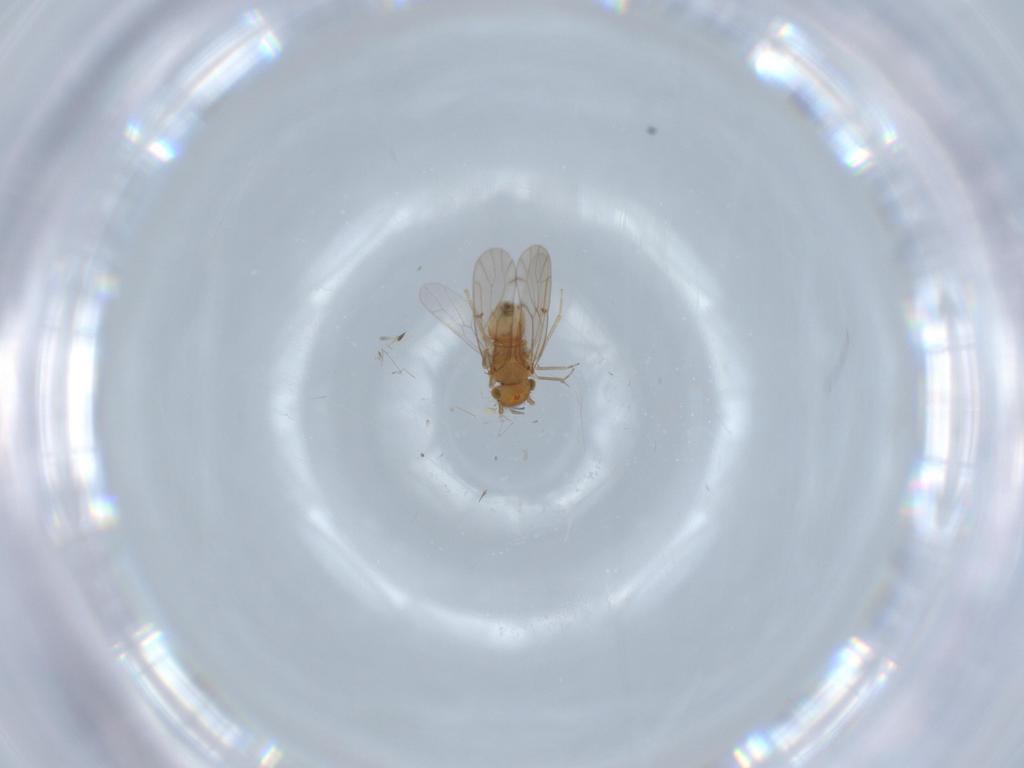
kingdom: Animalia
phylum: Arthropoda
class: Insecta
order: Psocodea
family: Ectopsocidae
